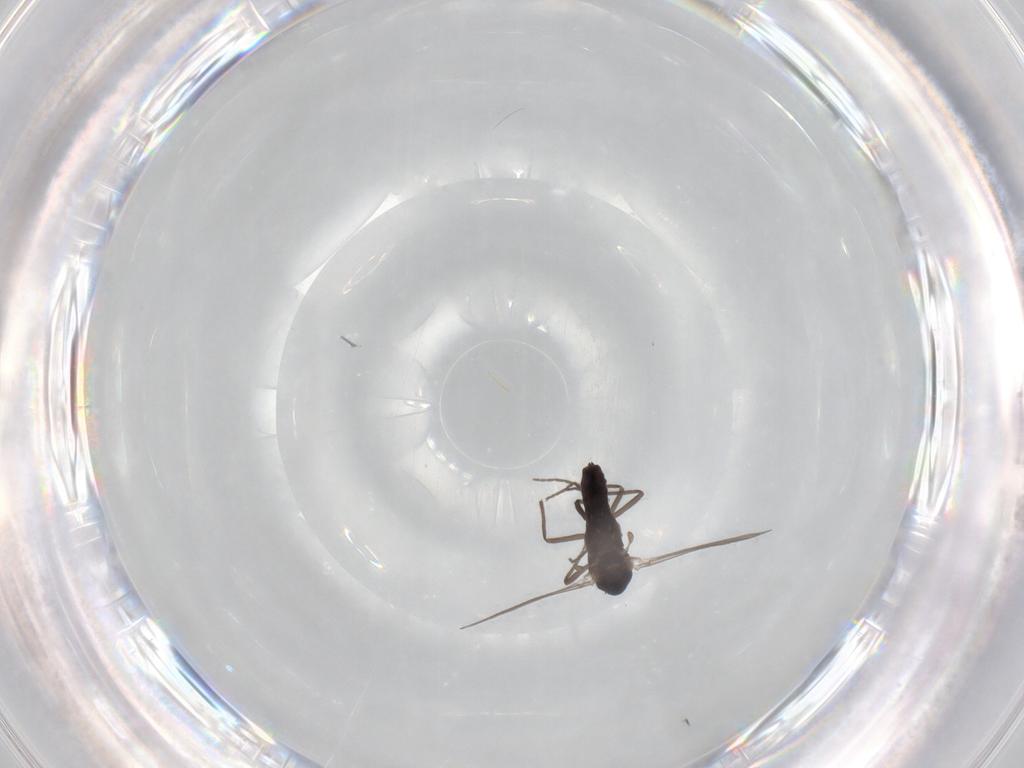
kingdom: Animalia
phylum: Arthropoda
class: Insecta
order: Diptera
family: Chironomidae
